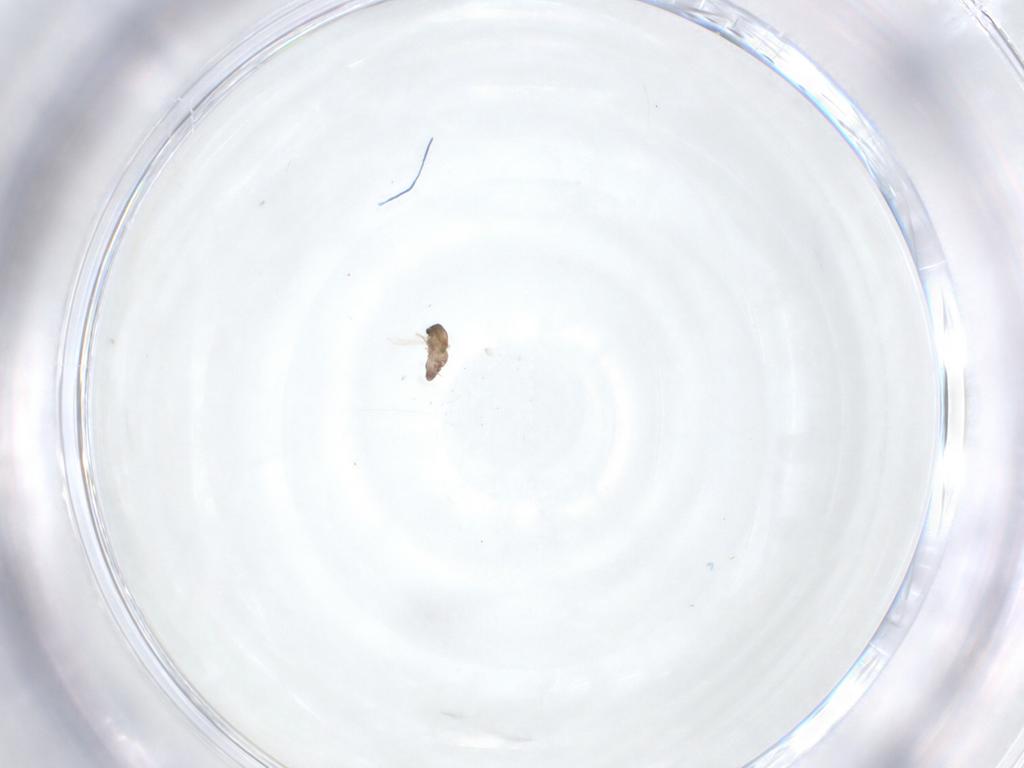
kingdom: Animalia
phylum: Arthropoda
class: Insecta
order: Diptera
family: Chironomidae
